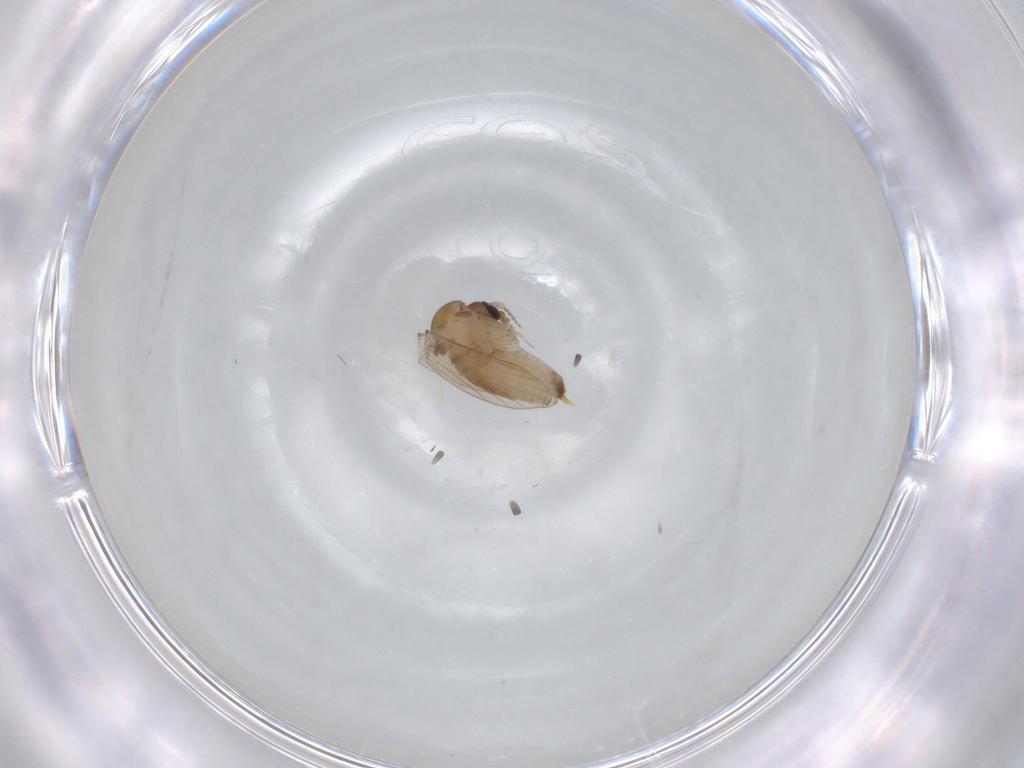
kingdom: Animalia
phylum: Arthropoda
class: Insecta
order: Diptera
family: Psychodidae
